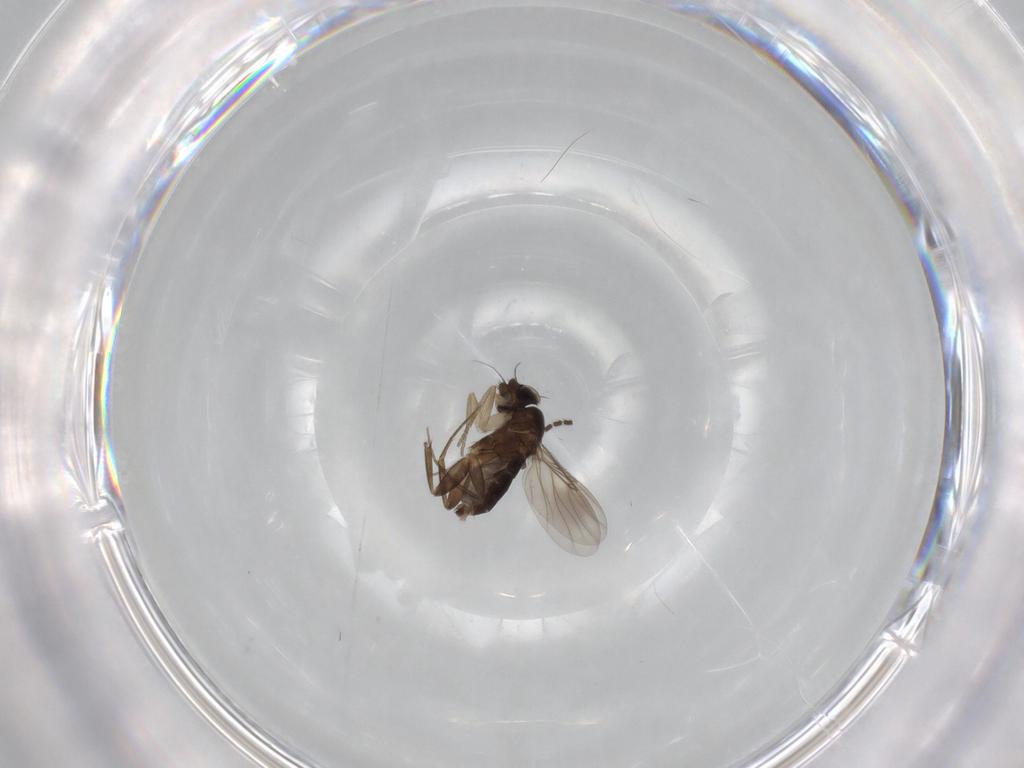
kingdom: Animalia
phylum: Arthropoda
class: Insecta
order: Diptera
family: Phoridae
